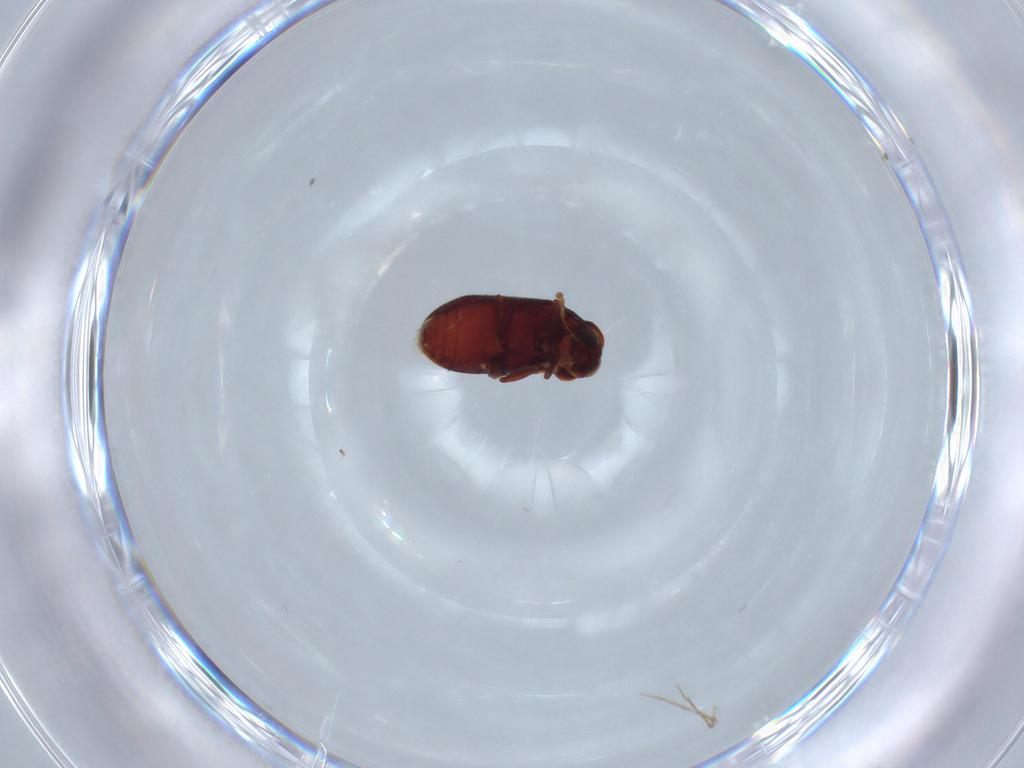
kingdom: Animalia
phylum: Arthropoda
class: Insecta
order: Coleoptera
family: Ptinidae
